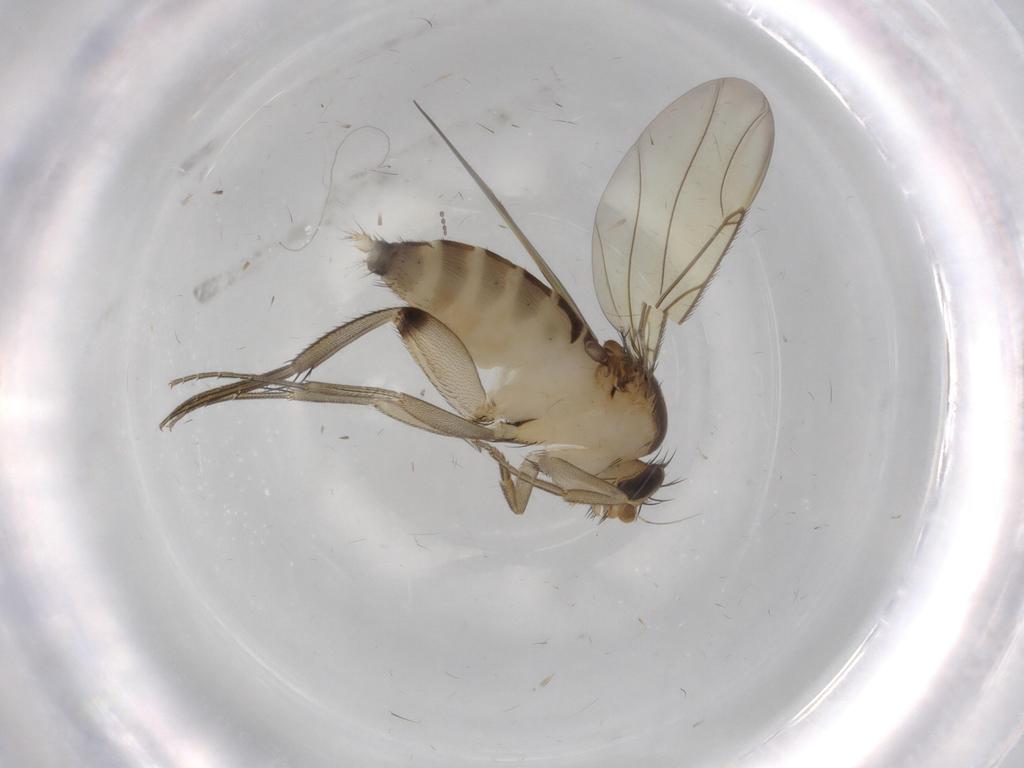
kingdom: Animalia
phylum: Arthropoda
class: Insecta
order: Diptera
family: Phoridae
